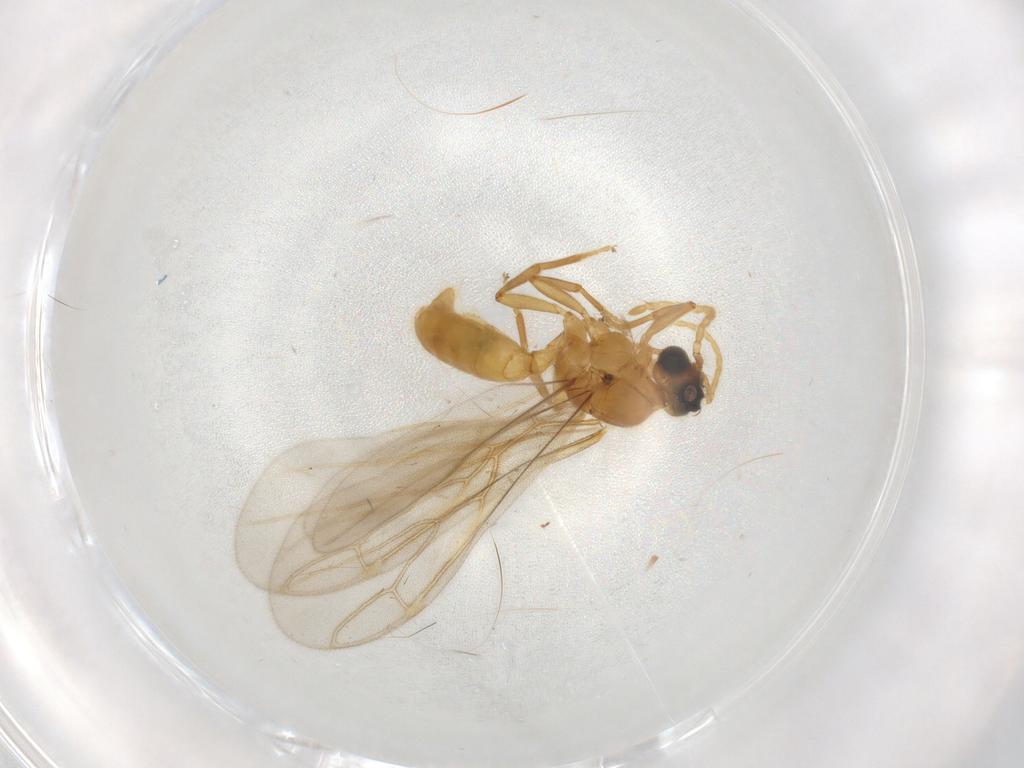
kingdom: Animalia
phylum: Arthropoda
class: Insecta
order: Hymenoptera
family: Formicidae
